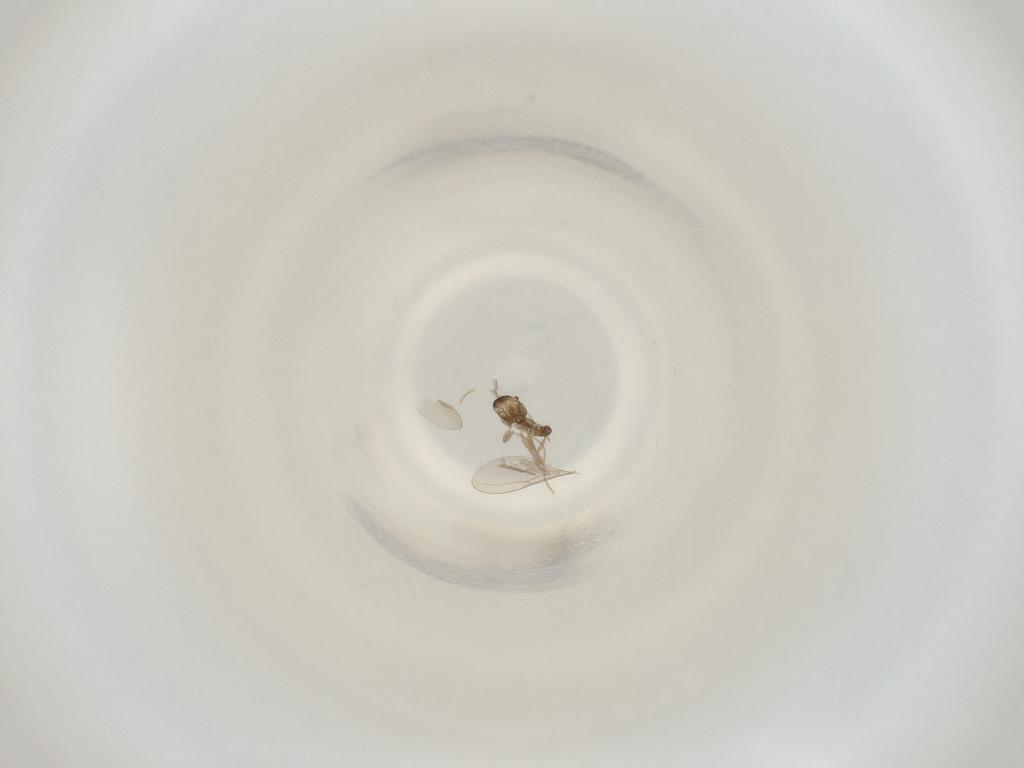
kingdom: Animalia
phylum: Arthropoda
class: Insecta
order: Diptera
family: Cecidomyiidae
